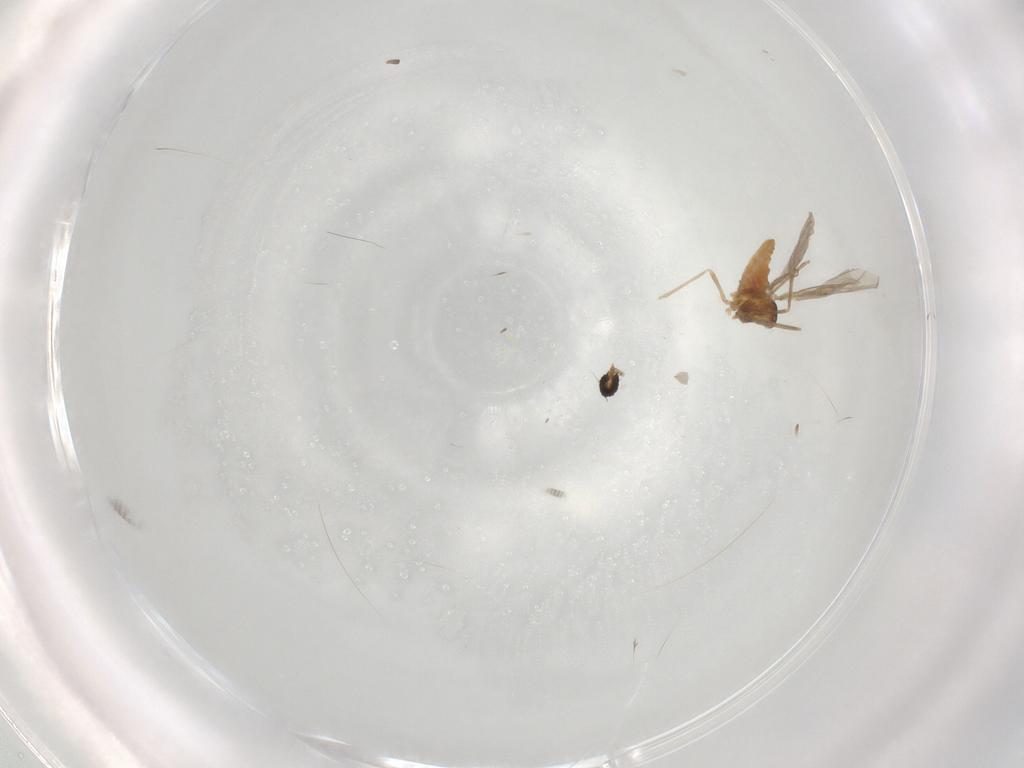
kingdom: Animalia
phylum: Arthropoda
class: Insecta
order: Diptera
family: Cecidomyiidae
